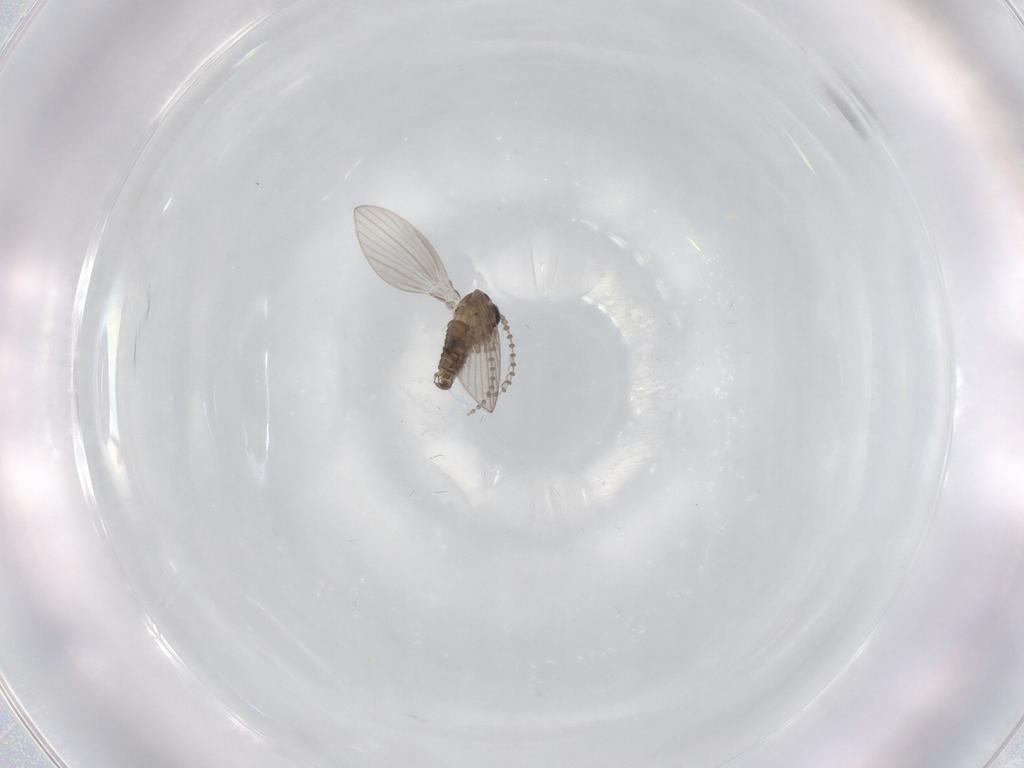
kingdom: Animalia
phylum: Arthropoda
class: Insecta
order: Diptera
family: Psychodidae
